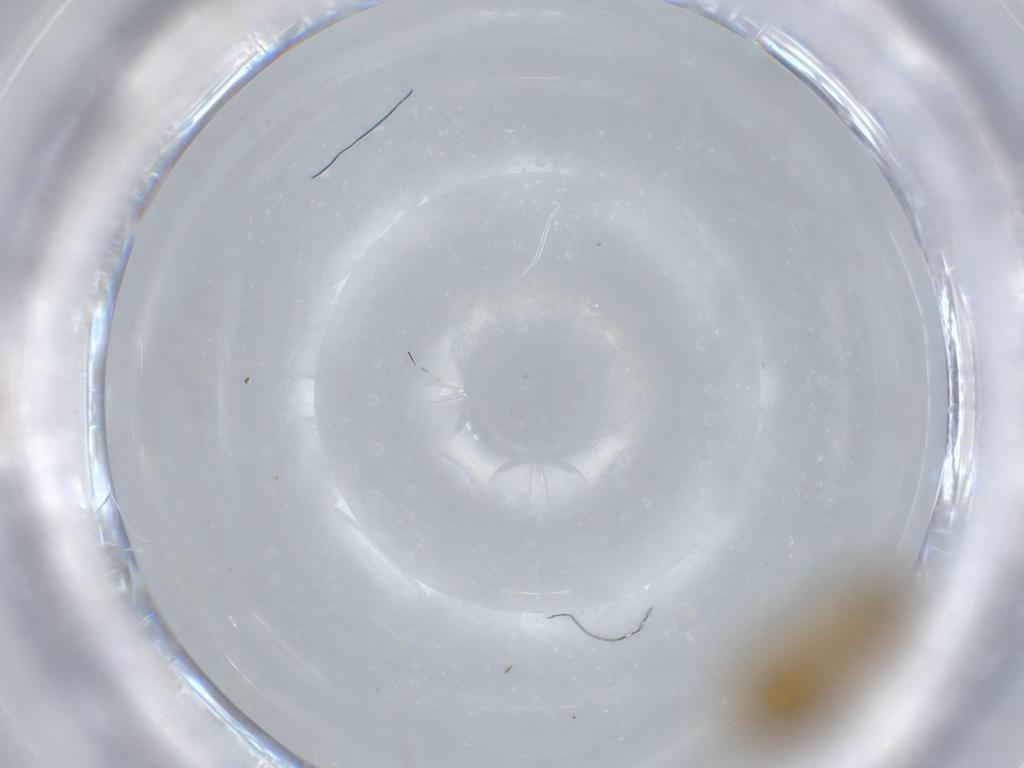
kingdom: Animalia
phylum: Arthropoda
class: Insecta
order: Blattodea
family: Ectobiidae
